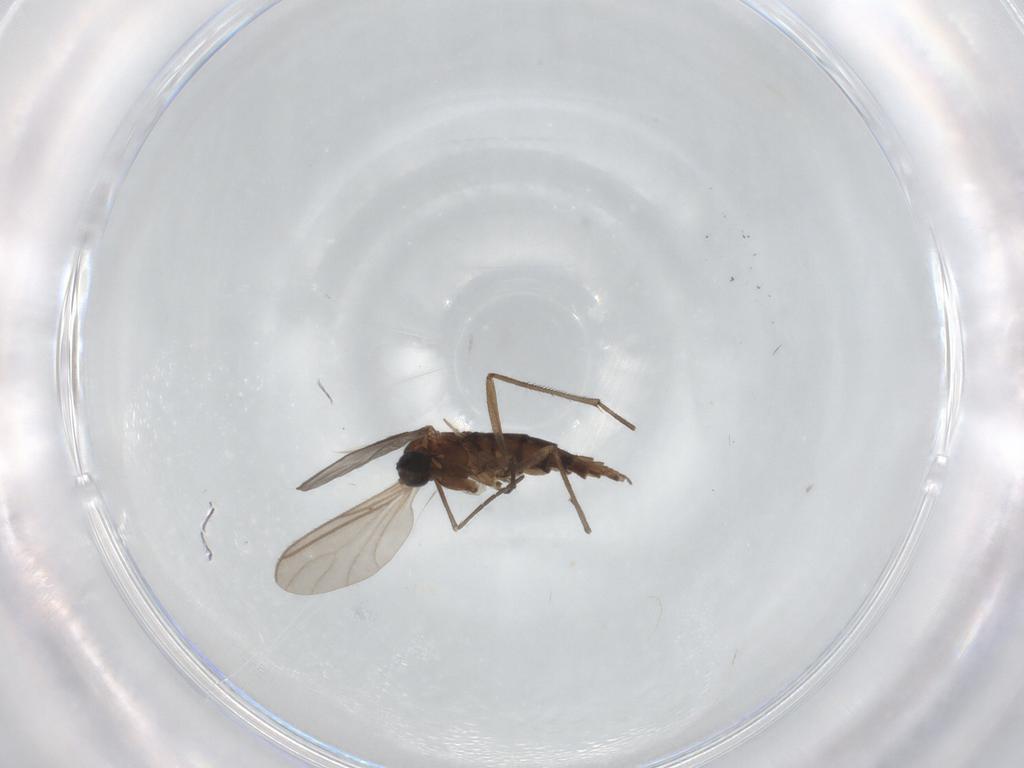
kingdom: Animalia
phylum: Arthropoda
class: Insecta
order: Diptera
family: Sciaridae
